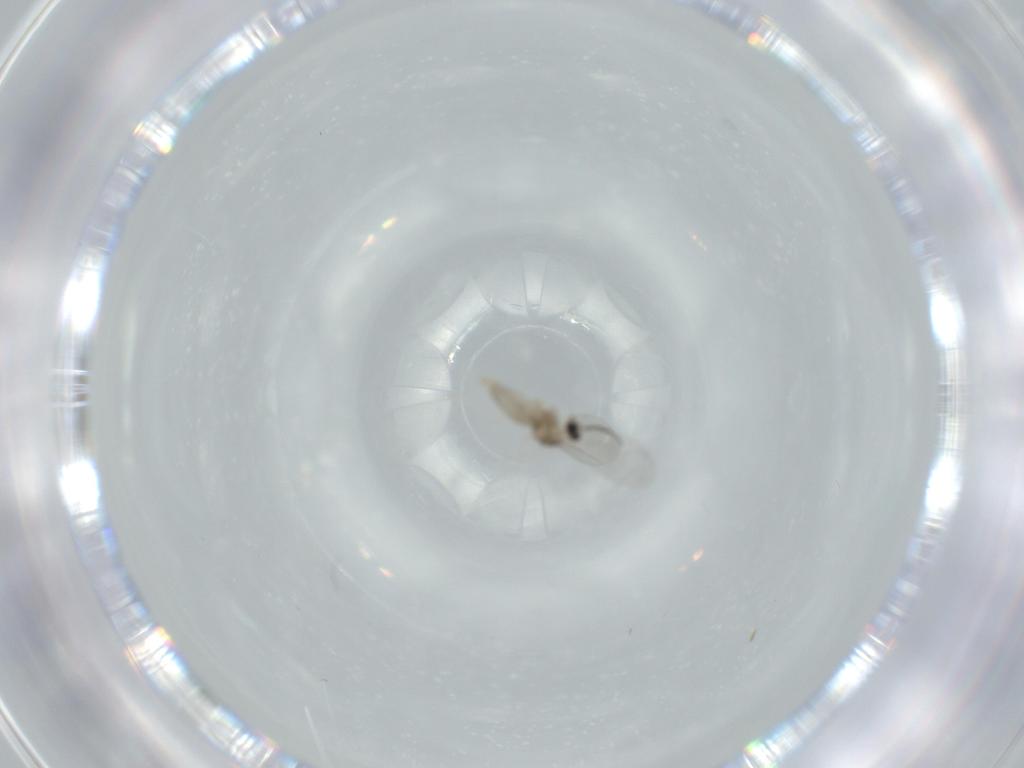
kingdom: Animalia
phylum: Arthropoda
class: Insecta
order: Diptera
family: Cecidomyiidae
